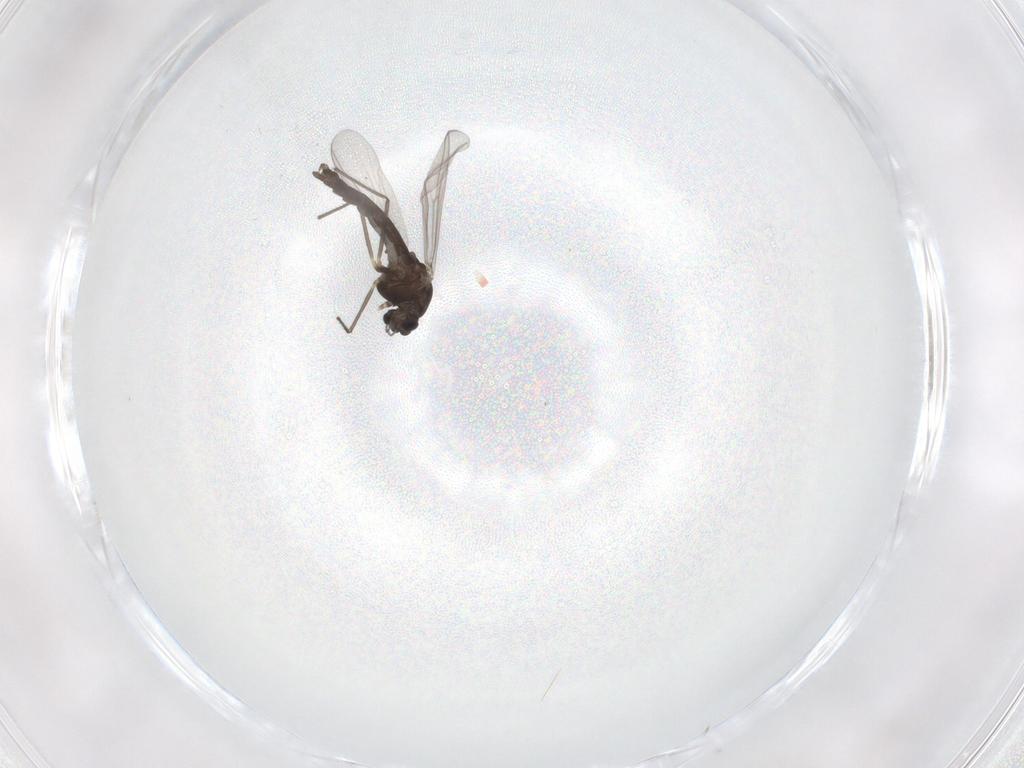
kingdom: Animalia
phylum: Arthropoda
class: Insecta
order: Diptera
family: Chironomidae
